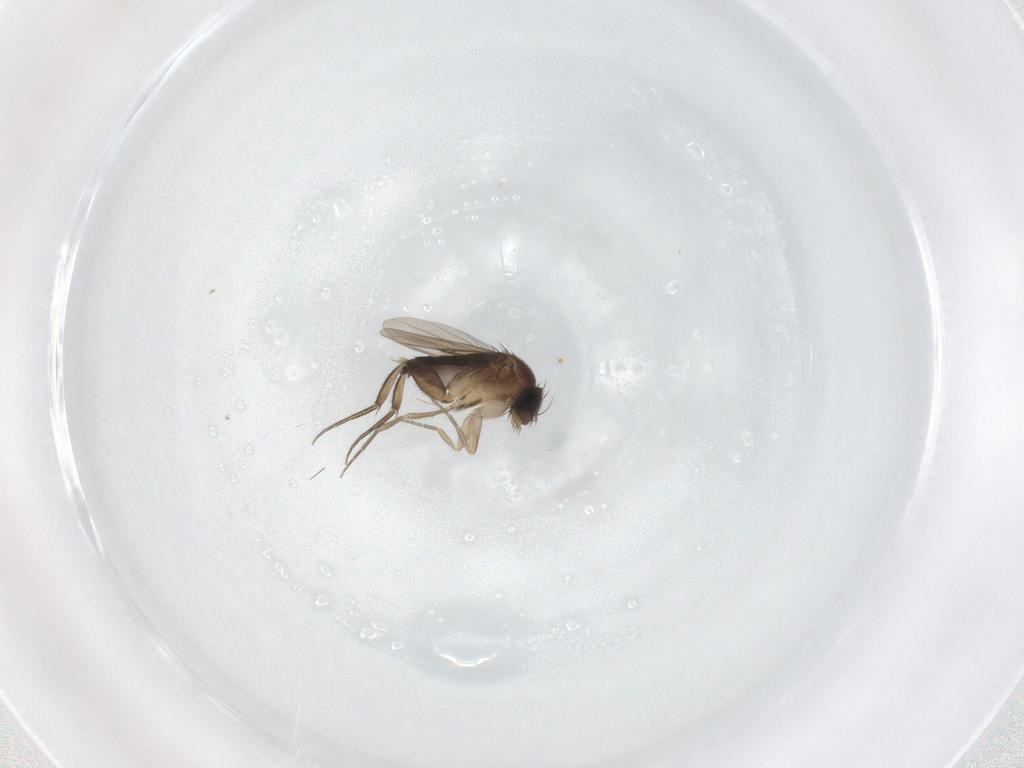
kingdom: Animalia
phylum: Arthropoda
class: Insecta
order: Diptera
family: Phoridae
